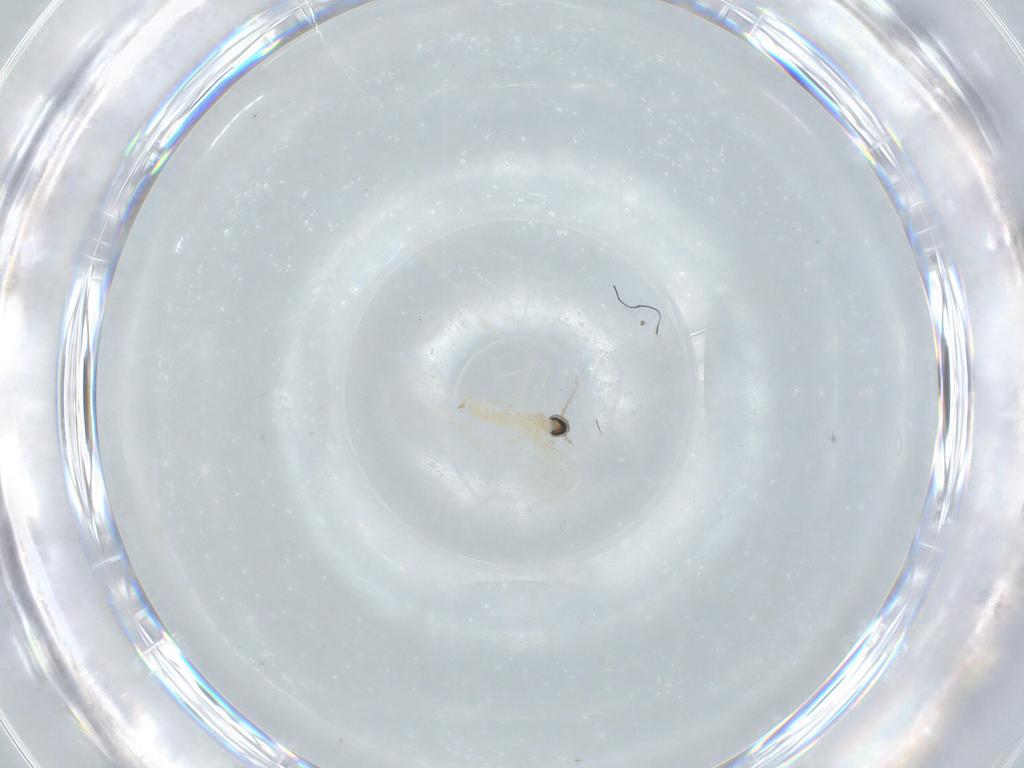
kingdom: Animalia
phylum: Arthropoda
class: Insecta
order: Diptera
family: Cecidomyiidae
